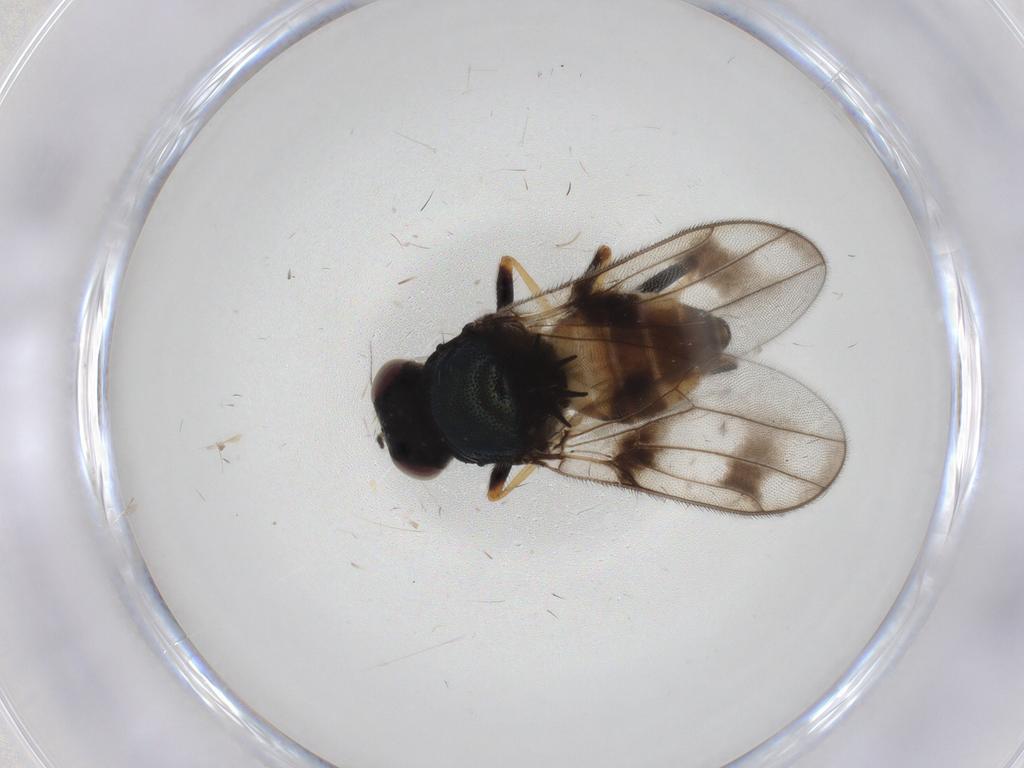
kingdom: Animalia
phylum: Arthropoda
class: Insecta
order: Diptera
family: Chloropidae
